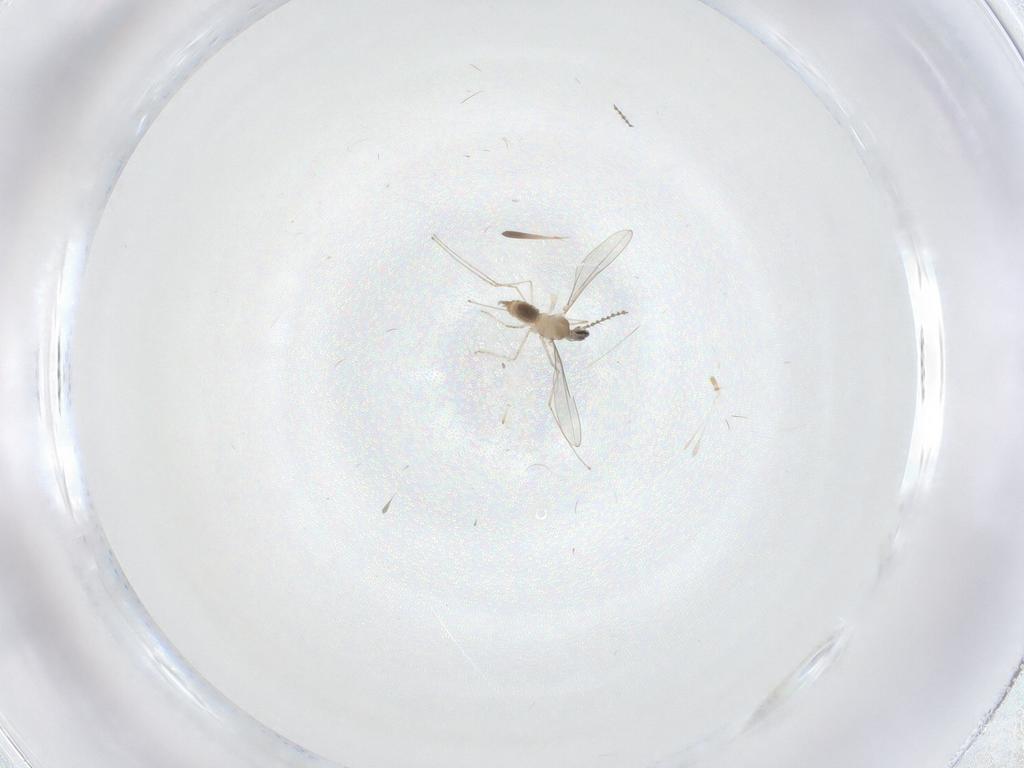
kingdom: Animalia
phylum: Arthropoda
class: Insecta
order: Diptera
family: Cecidomyiidae
